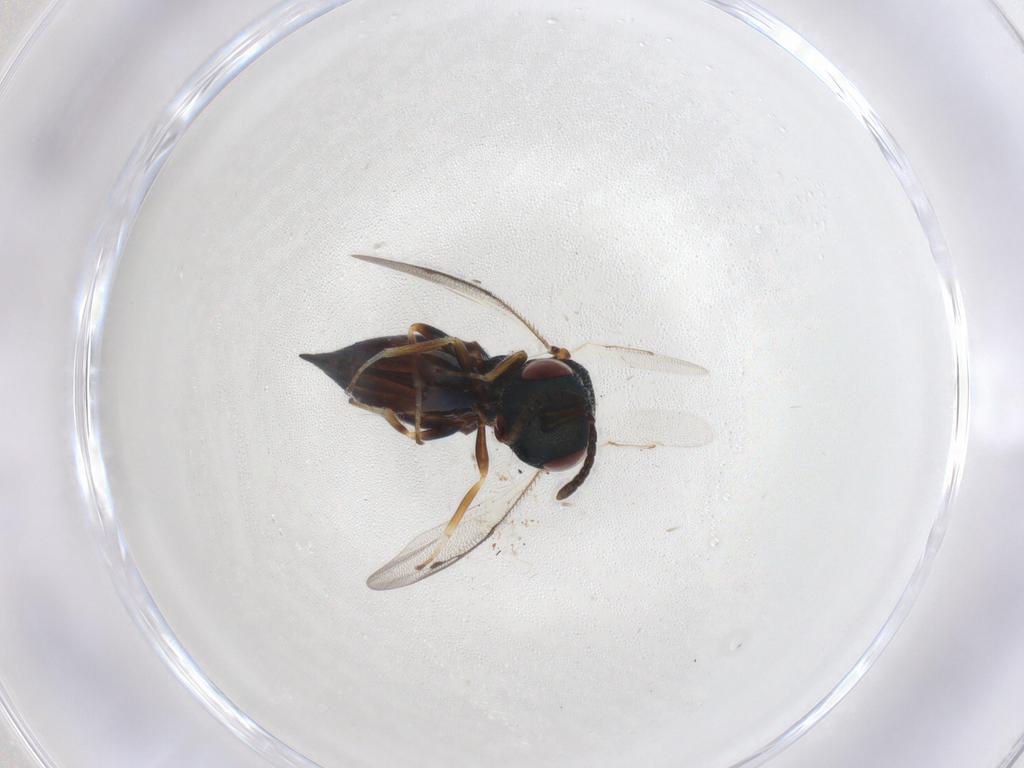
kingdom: Animalia
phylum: Arthropoda
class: Insecta
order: Hymenoptera
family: Pteromalidae
